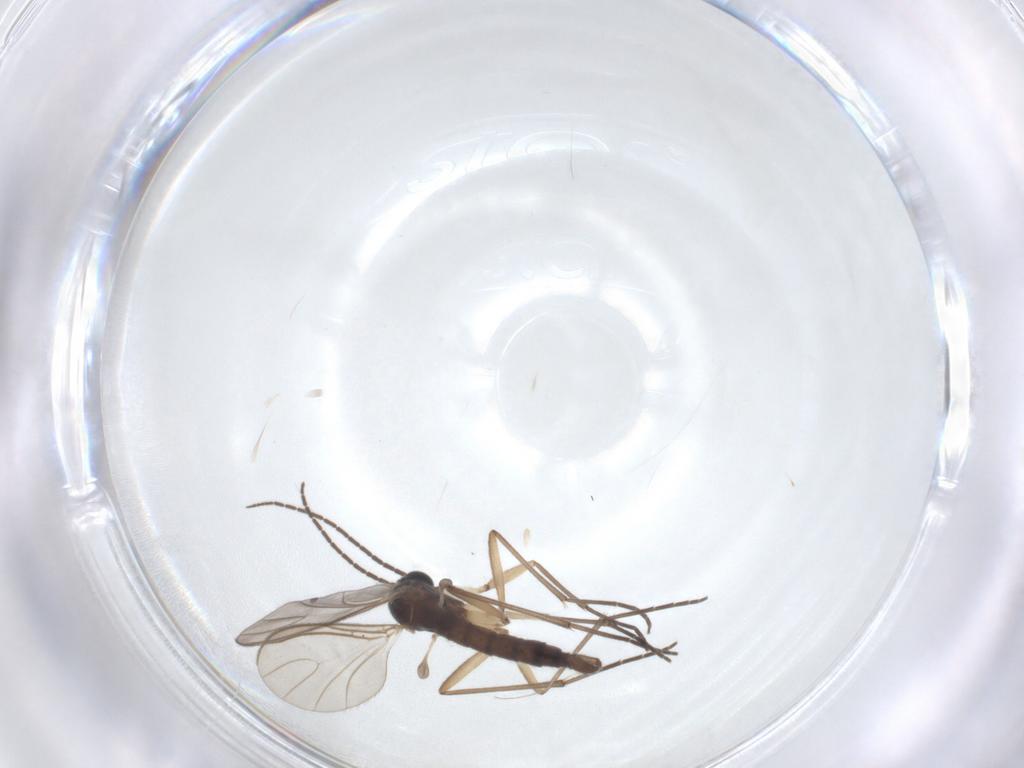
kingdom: Animalia
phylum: Arthropoda
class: Insecta
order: Diptera
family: Sciaridae
